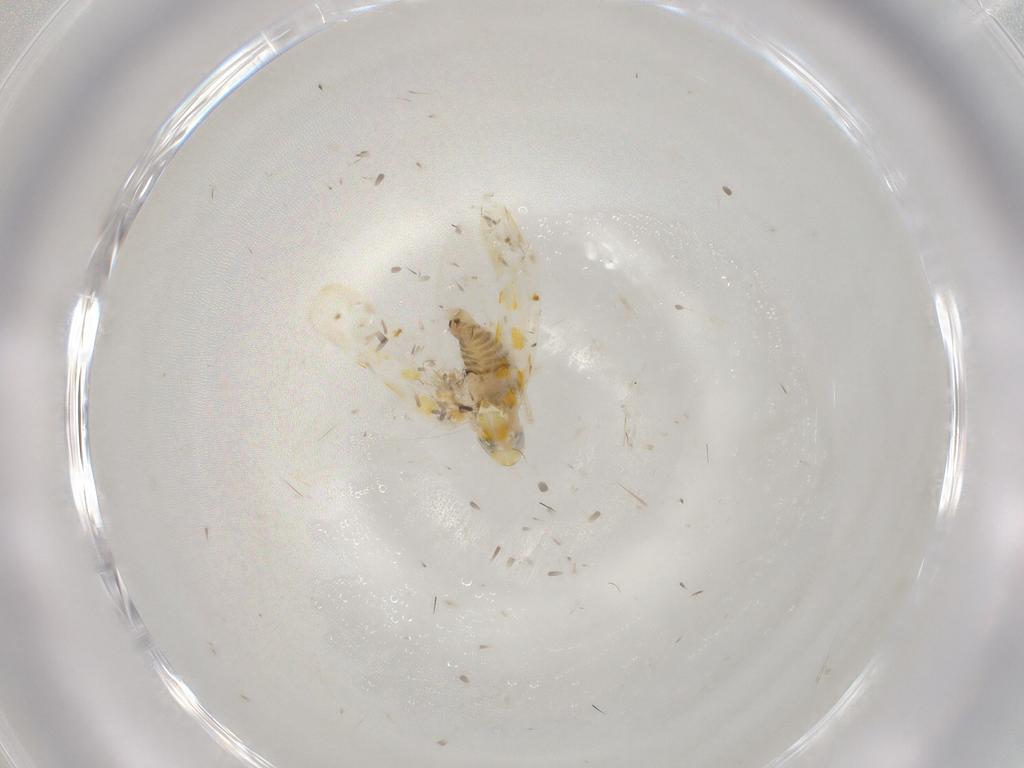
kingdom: Animalia
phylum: Arthropoda
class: Insecta
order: Hemiptera
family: Cicadellidae
